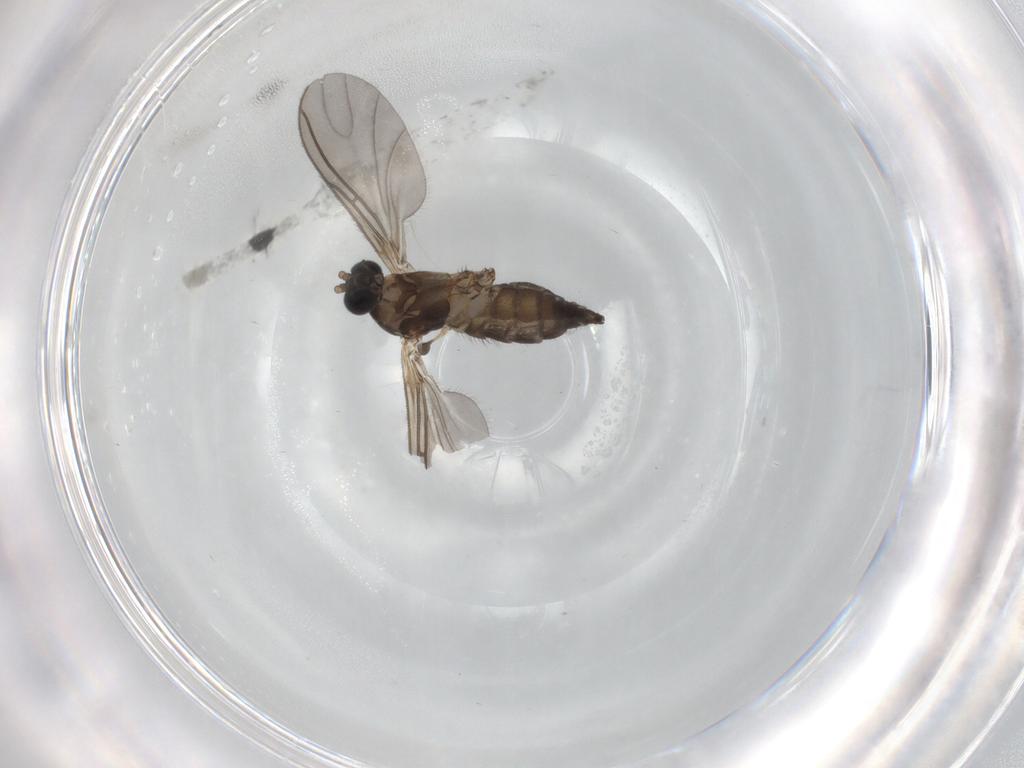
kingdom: Animalia
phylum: Arthropoda
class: Insecta
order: Diptera
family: Sciaridae
